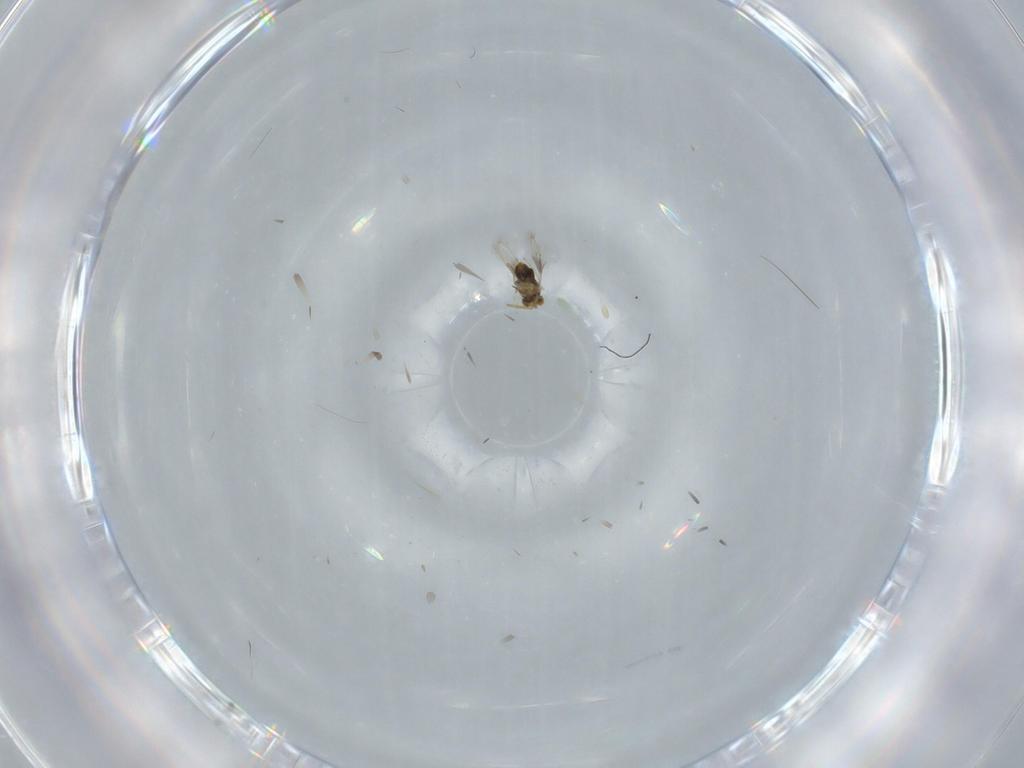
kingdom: Animalia
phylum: Arthropoda
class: Insecta
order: Hymenoptera
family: Aphelinidae
